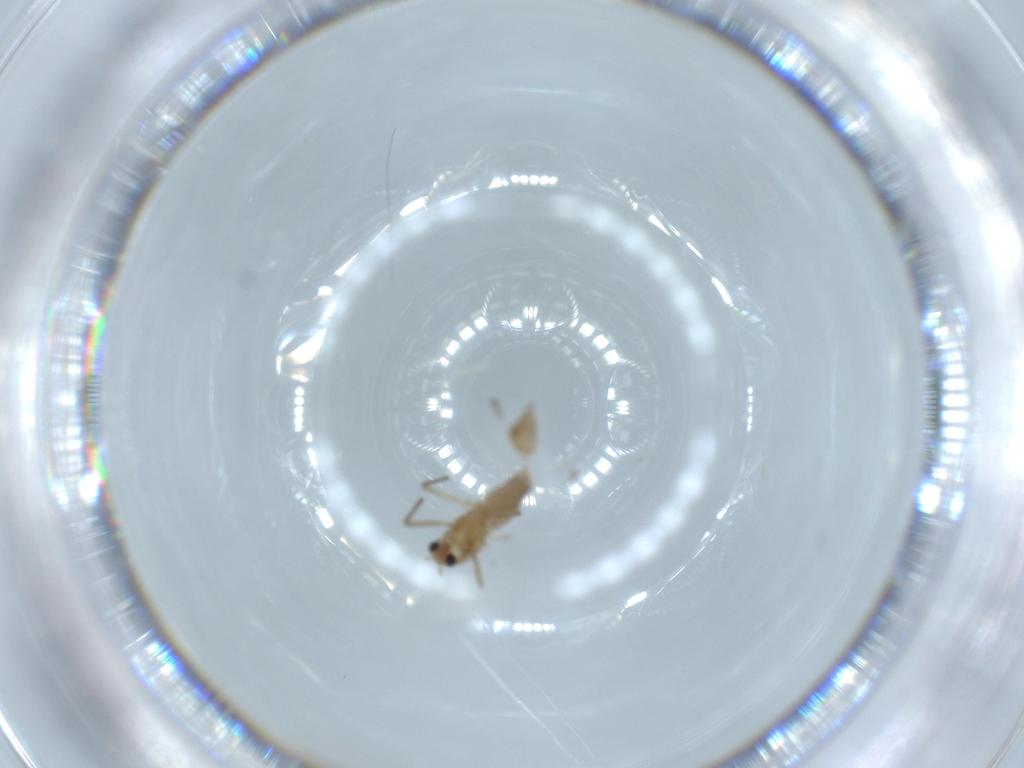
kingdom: Animalia
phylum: Arthropoda
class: Insecta
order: Diptera
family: Chironomidae
